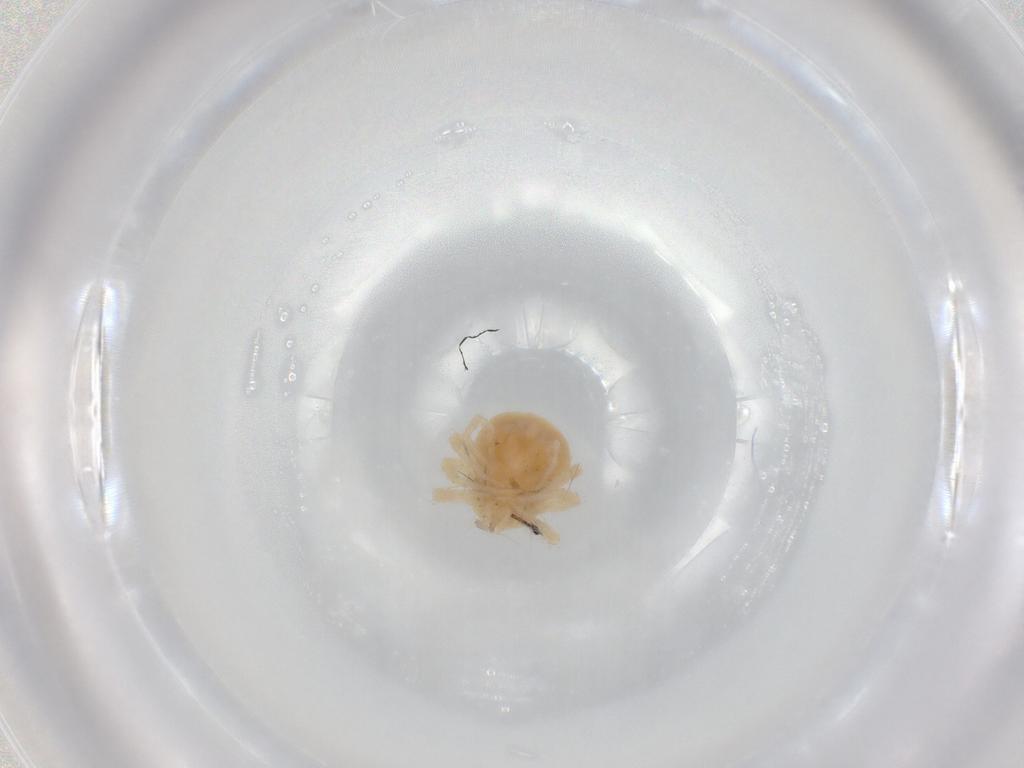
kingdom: Animalia
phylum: Arthropoda
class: Arachnida
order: Trombidiformes
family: Anystidae
